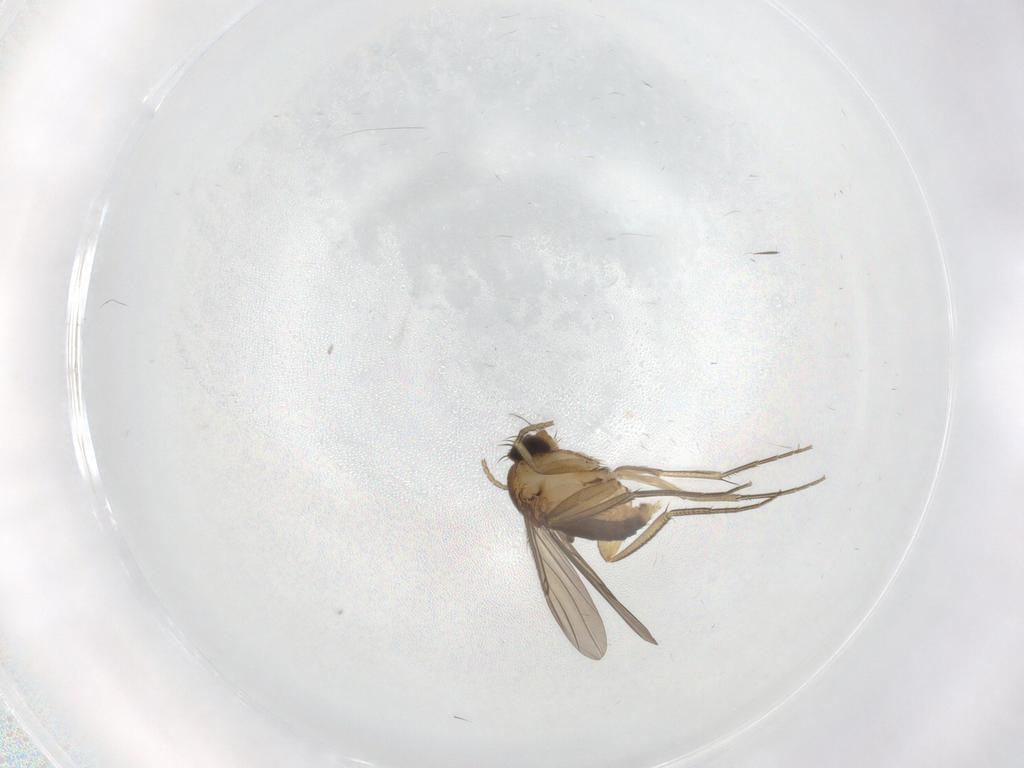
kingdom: Animalia
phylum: Arthropoda
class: Insecta
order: Diptera
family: Phoridae
